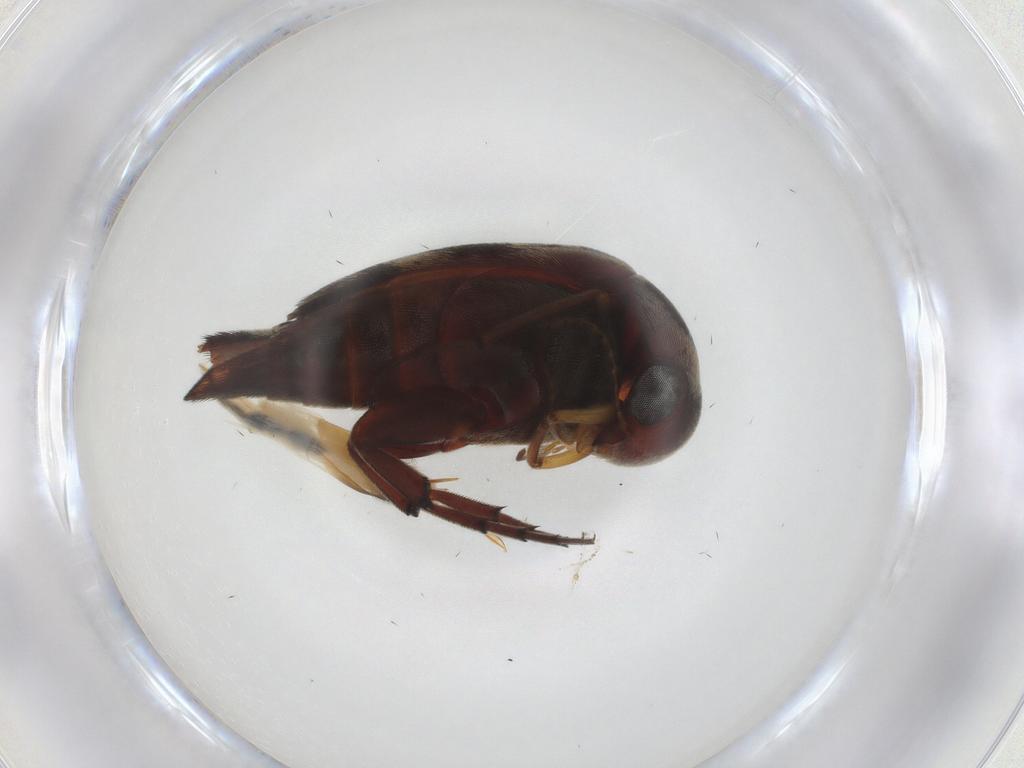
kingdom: Animalia
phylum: Arthropoda
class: Insecta
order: Coleoptera
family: Mordellidae
